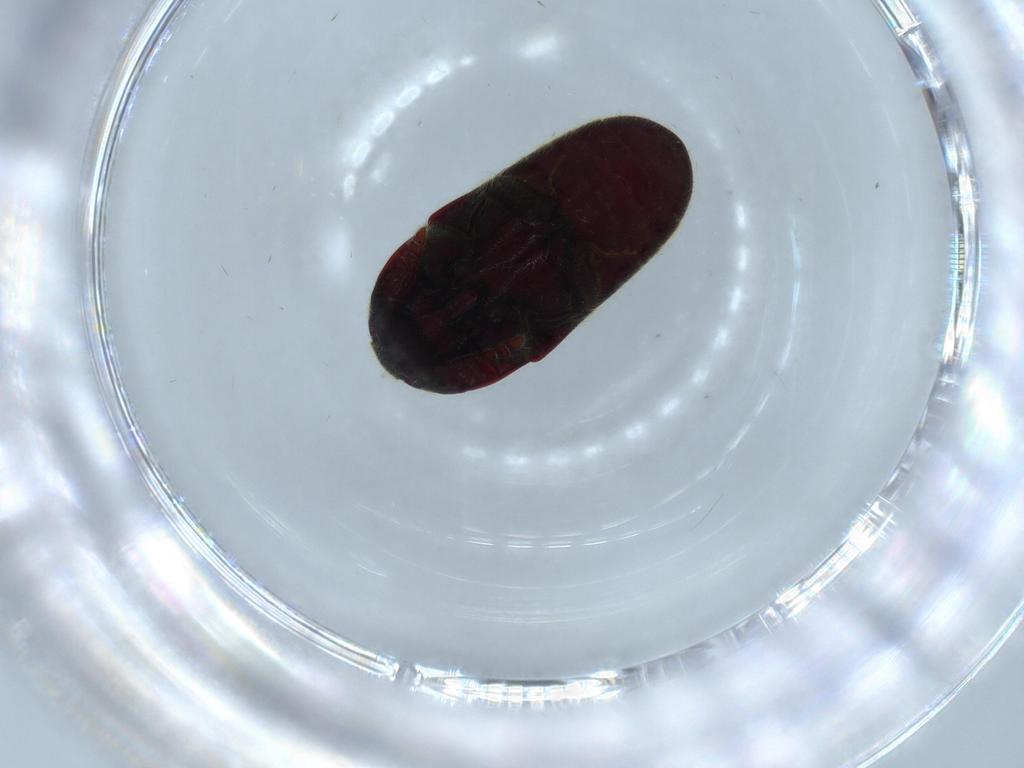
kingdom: Animalia
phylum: Arthropoda
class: Insecta
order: Coleoptera
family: Throscidae
